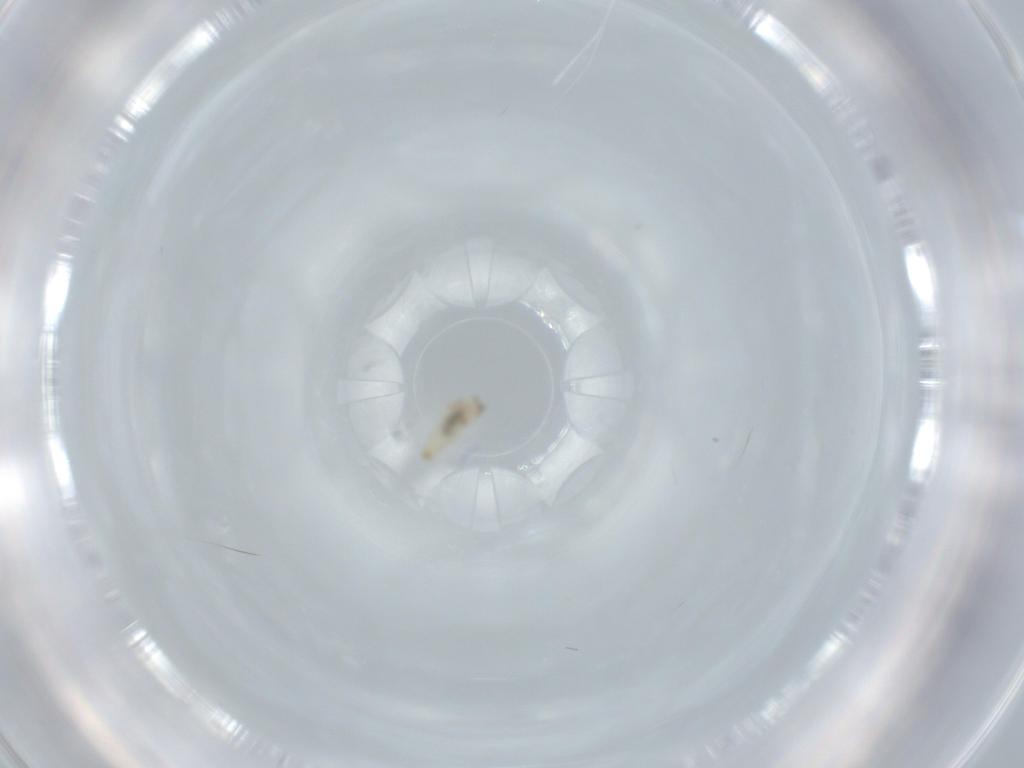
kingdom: Animalia
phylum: Arthropoda
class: Insecta
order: Diptera
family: Cecidomyiidae
